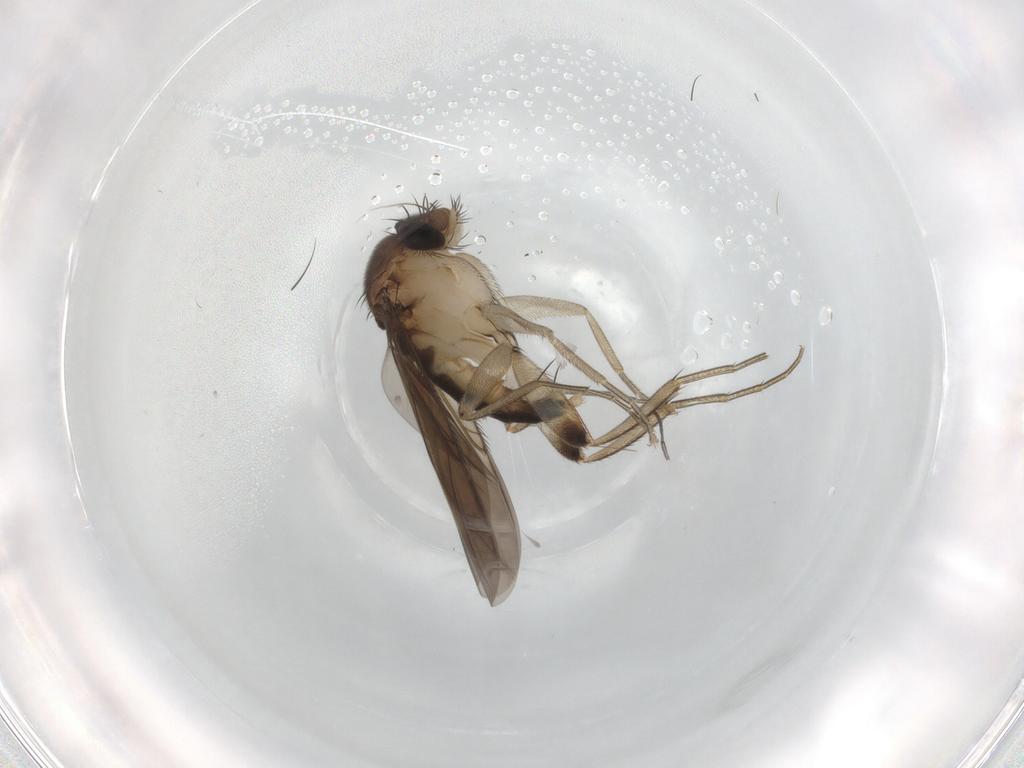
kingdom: Animalia
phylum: Arthropoda
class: Insecta
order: Diptera
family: Phoridae
